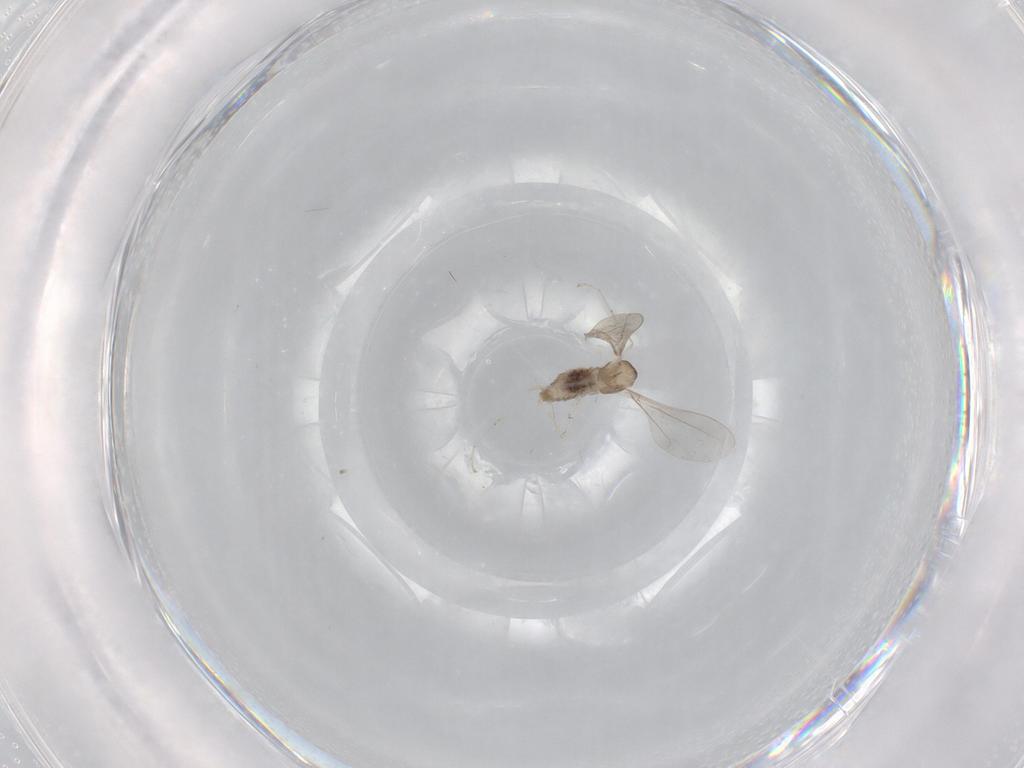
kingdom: Animalia
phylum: Arthropoda
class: Insecta
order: Diptera
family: Cecidomyiidae
